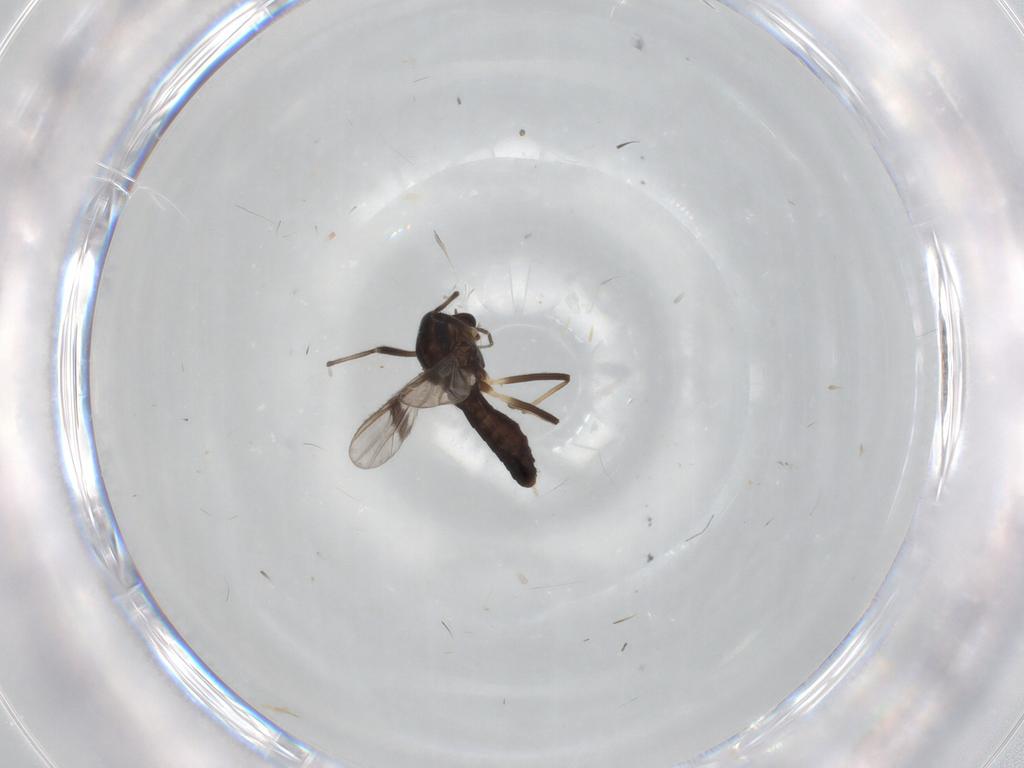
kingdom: Animalia
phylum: Arthropoda
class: Insecta
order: Diptera
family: Chironomidae
